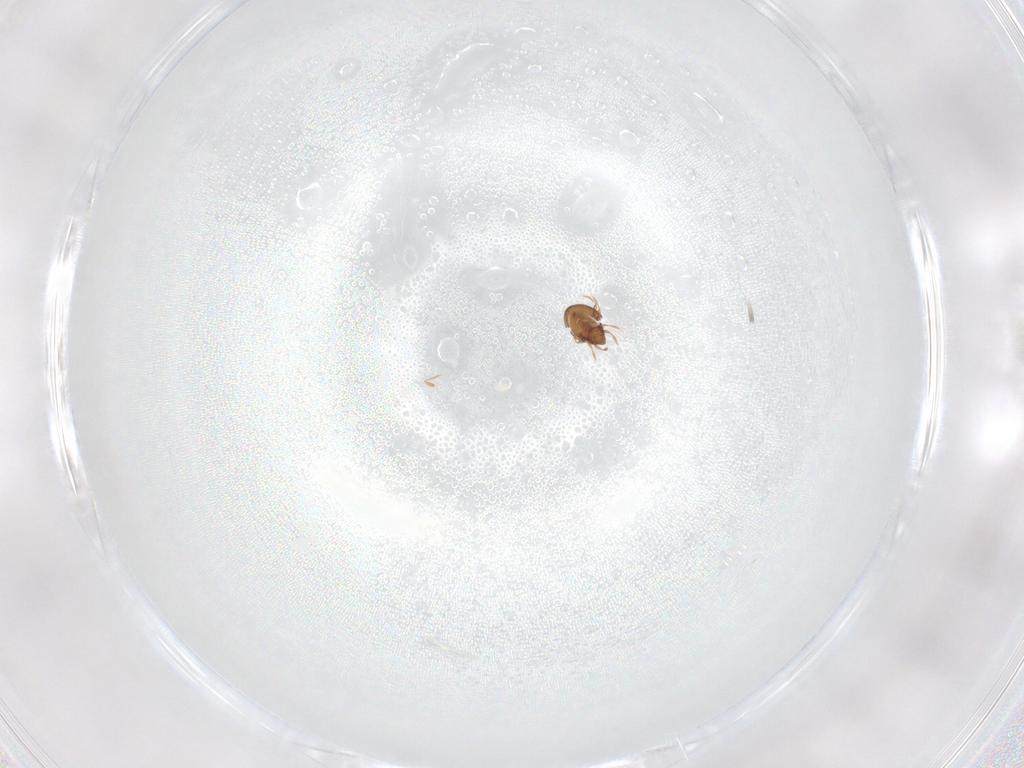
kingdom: Animalia
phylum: Arthropoda
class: Arachnida
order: Sarcoptiformes
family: Oribatulidae
